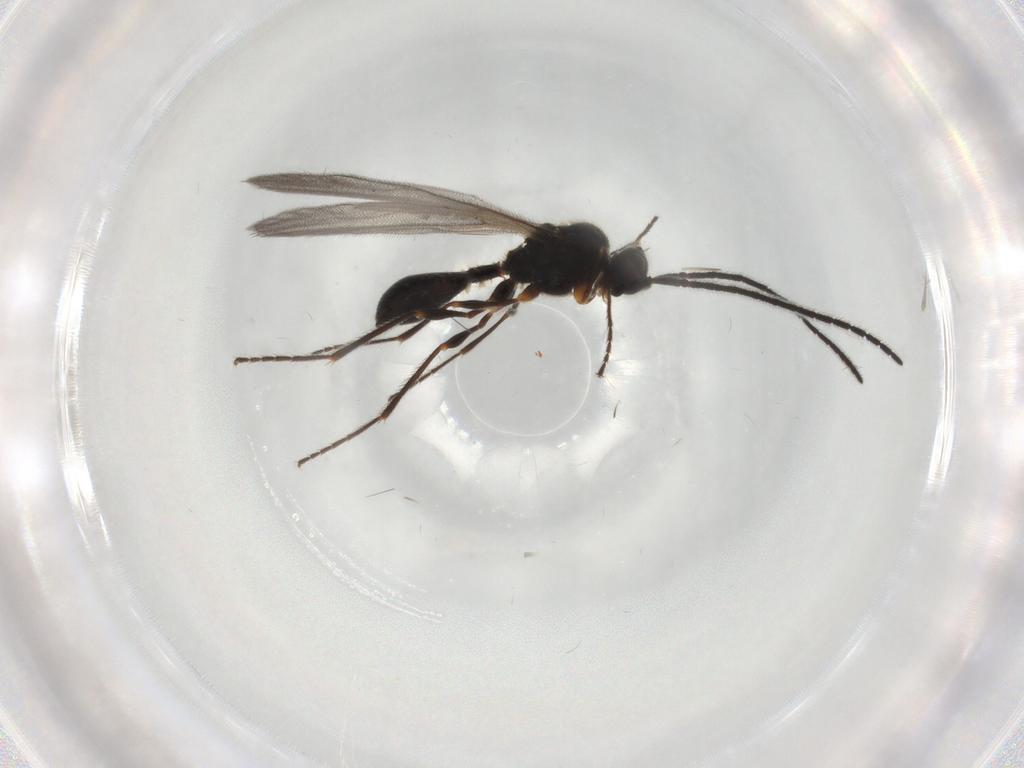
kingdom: Animalia
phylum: Arthropoda
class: Insecta
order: Hymenoptera
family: Diapriidae
